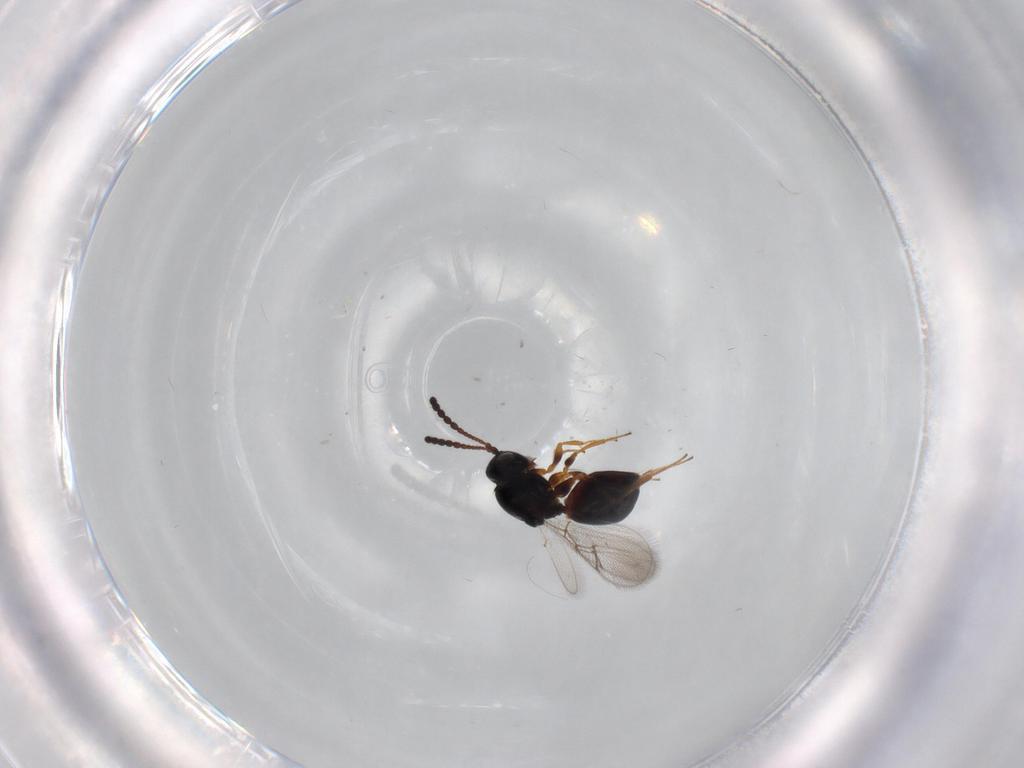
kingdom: Animalia
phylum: Arthropoda
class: Insecta
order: Hymenoptera
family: Figitidae
